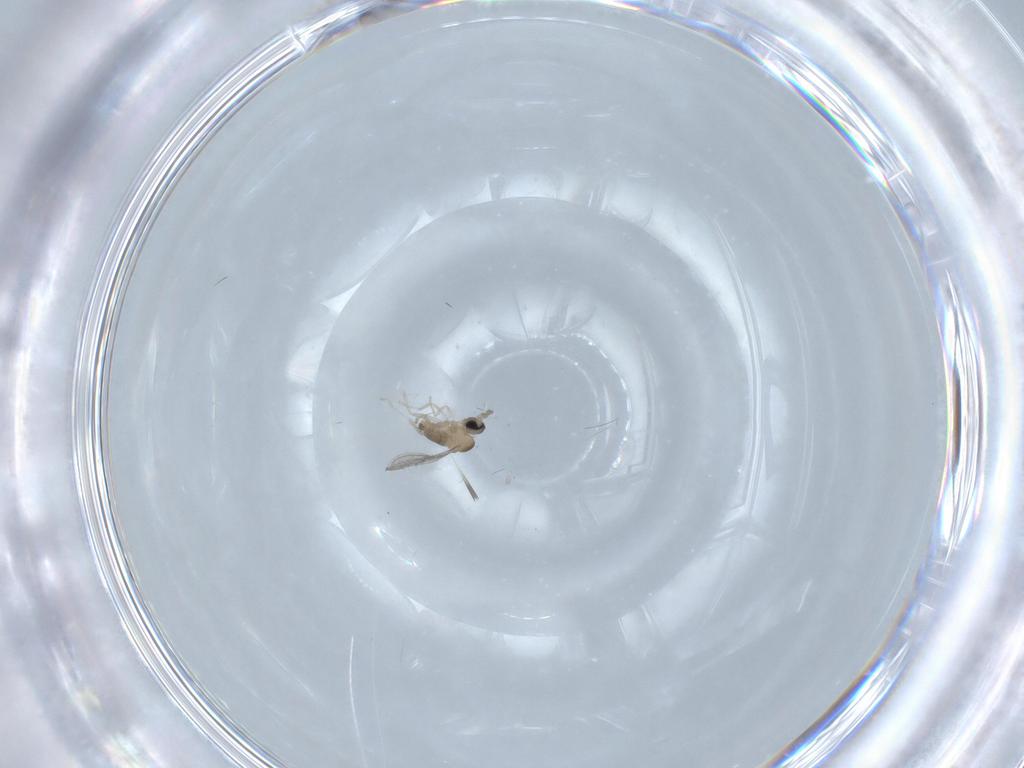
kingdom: Animalia
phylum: Arthropoda
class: Insecta
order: Diptera
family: Cecidomyiidae
